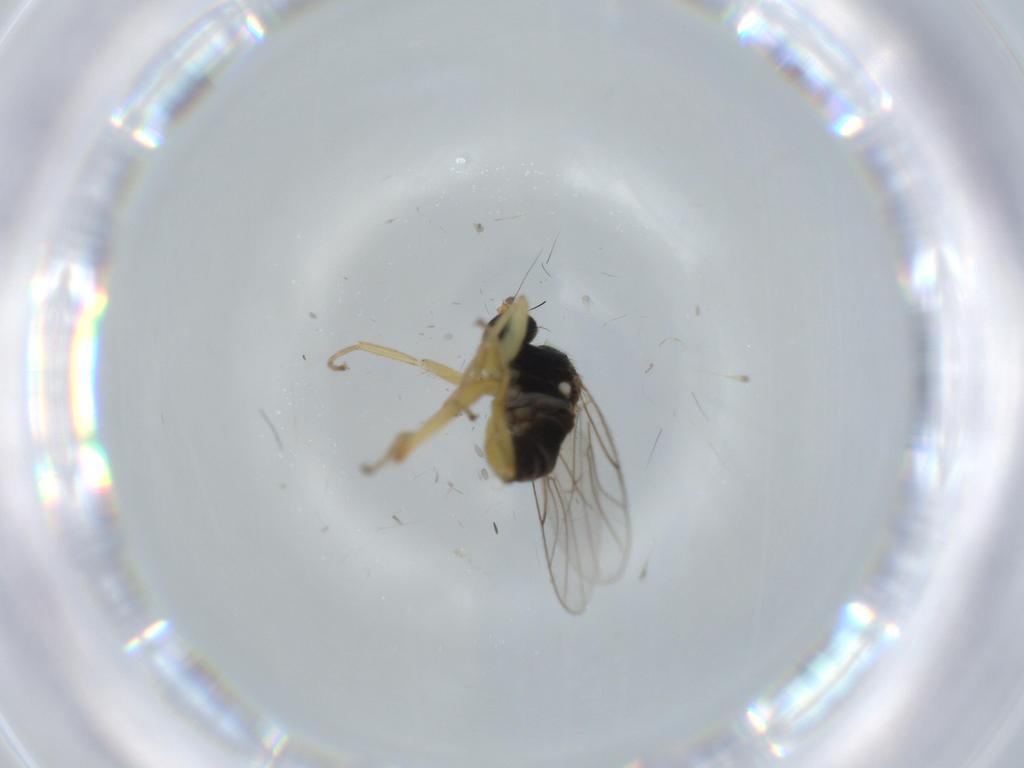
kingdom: Animalia
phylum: Arthropoda
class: Insecta
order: Diptera
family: Hybotidae
